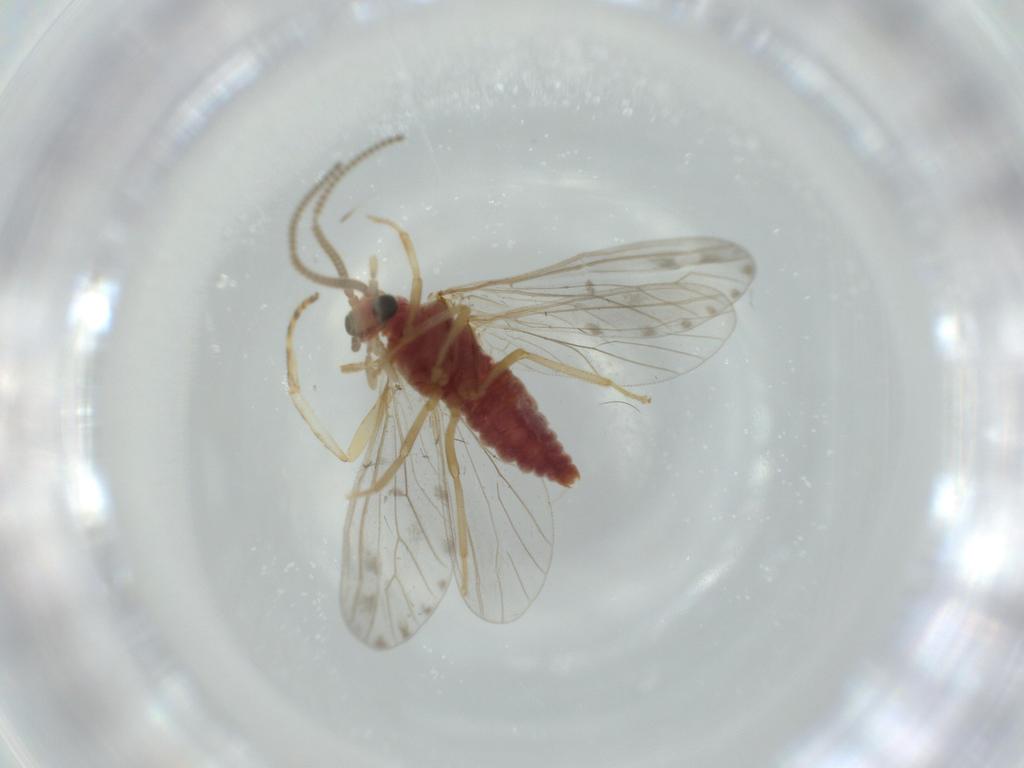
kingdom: Animalia
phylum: Arthropoda
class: Insecta
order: Neuroptera
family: Coniopterygidae
